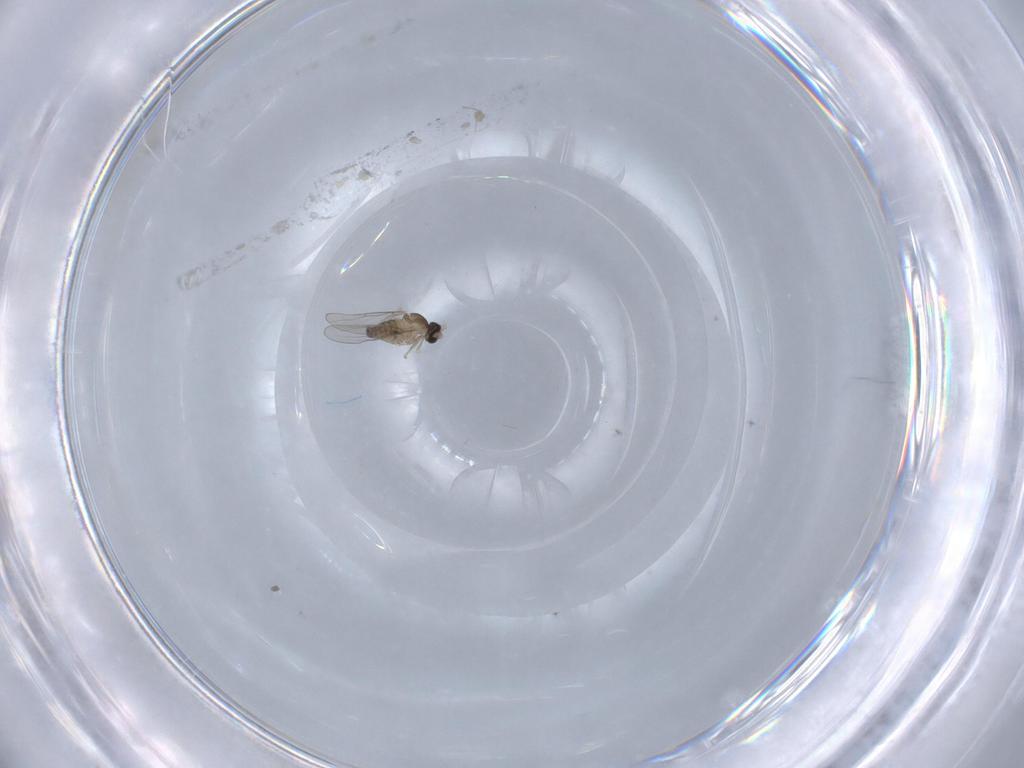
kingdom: Animalia
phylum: Arthropoda
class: Insecta
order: Diptera
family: Cecidomyiidae
